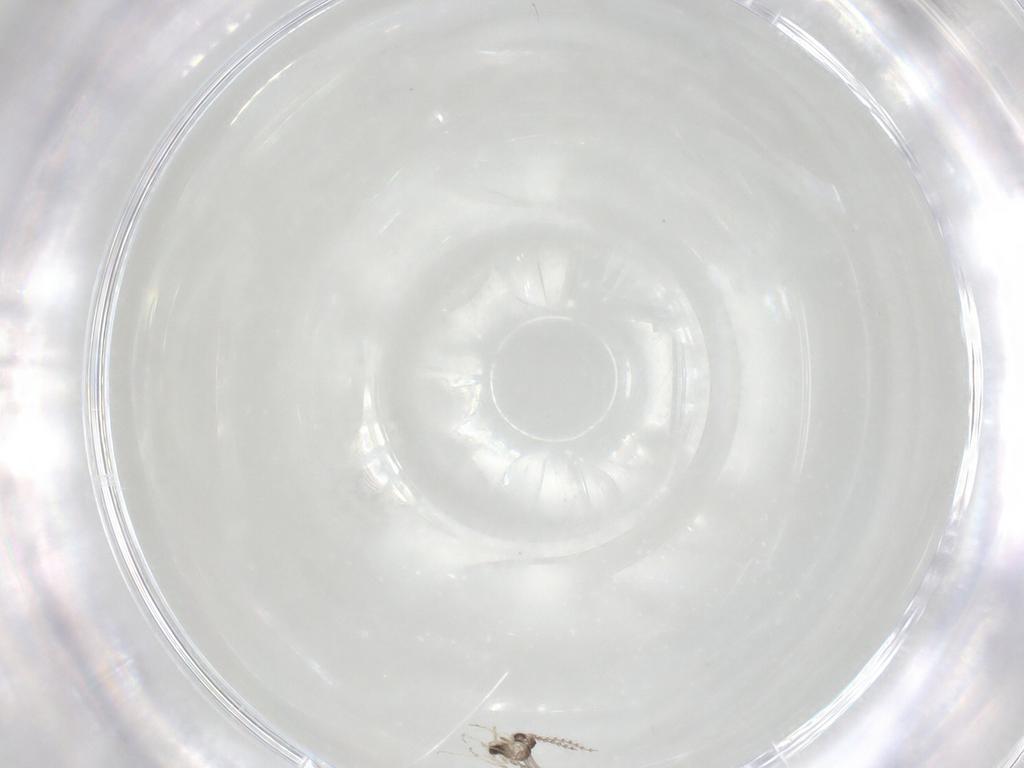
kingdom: Animalia
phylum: Arthropoda
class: Insecta
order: Diptera
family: Cecidomyiidae
